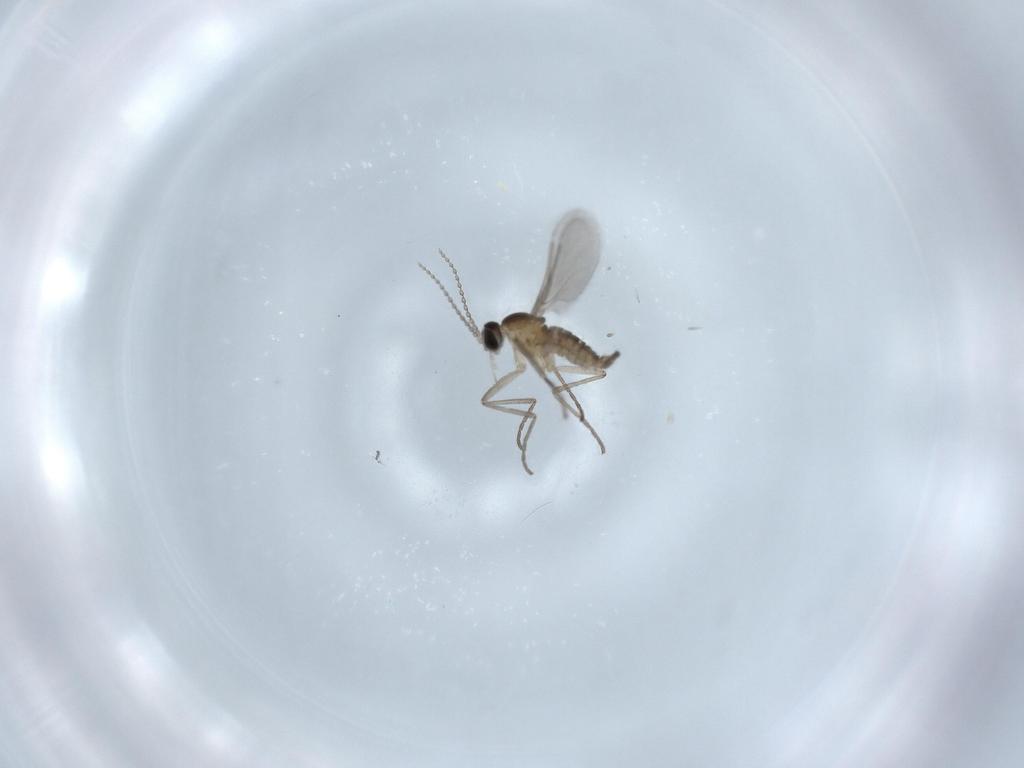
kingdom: Animalia
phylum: Arthropoda
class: Insecta
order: Diptera
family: Cecidomyiidae
